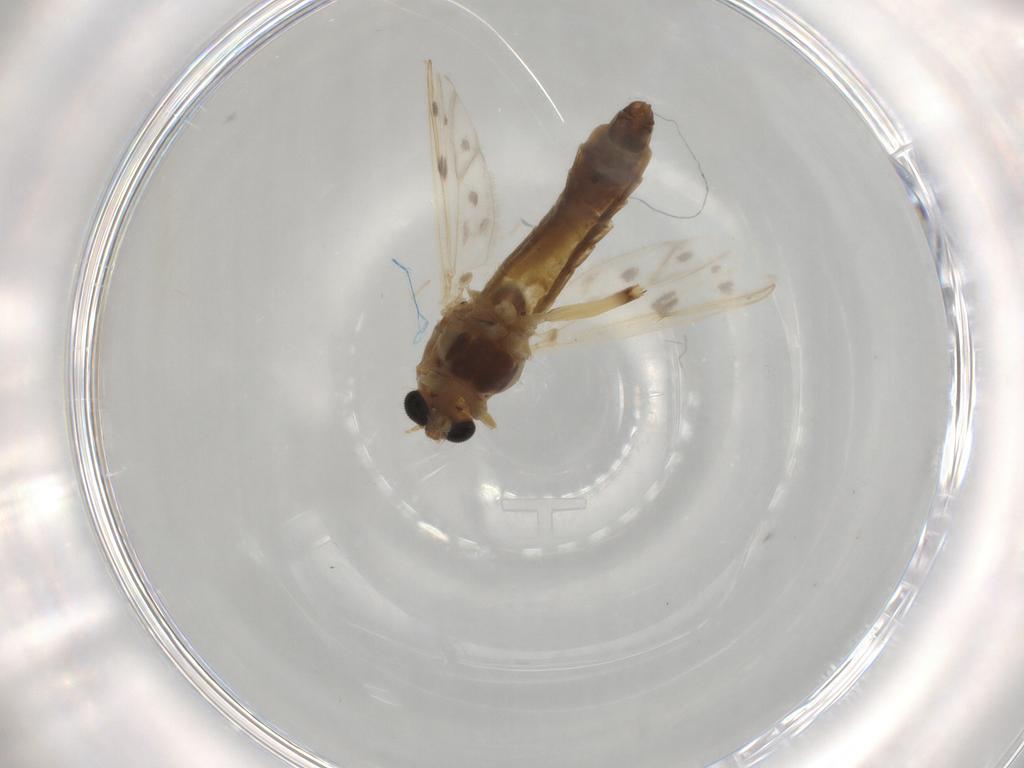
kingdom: Animalia
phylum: Arthropoda
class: Insecta
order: Diptera
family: Chironomidae
